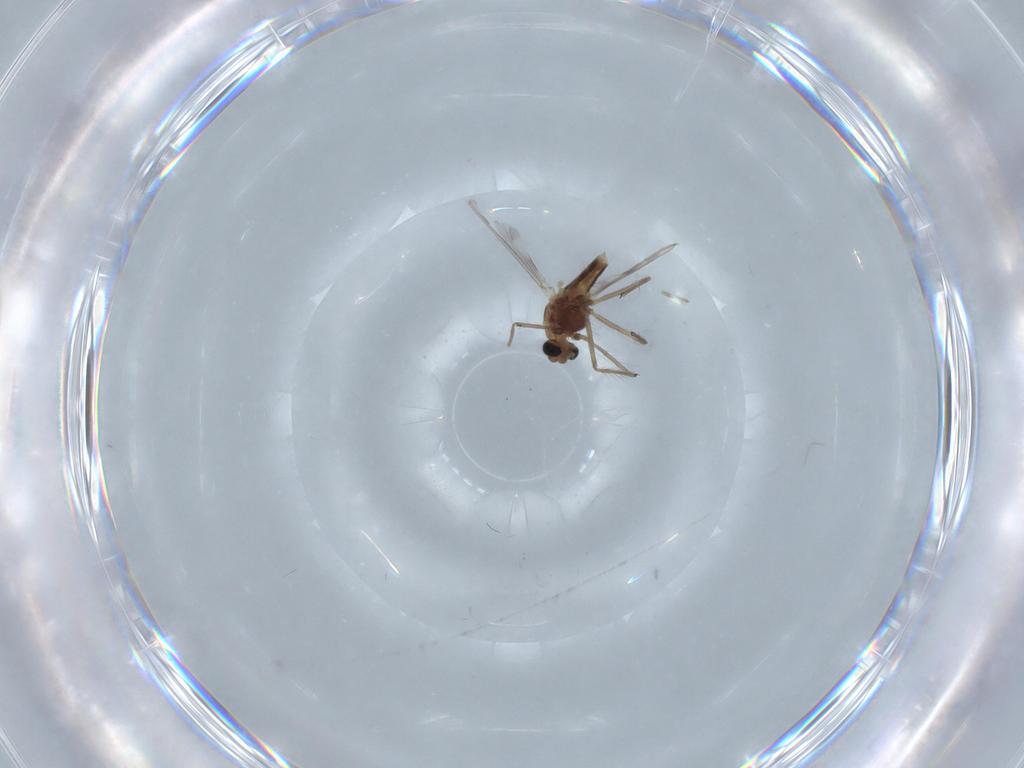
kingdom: Animalia
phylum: Arthropoda
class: Insecta
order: Diptera
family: Chironomidae
